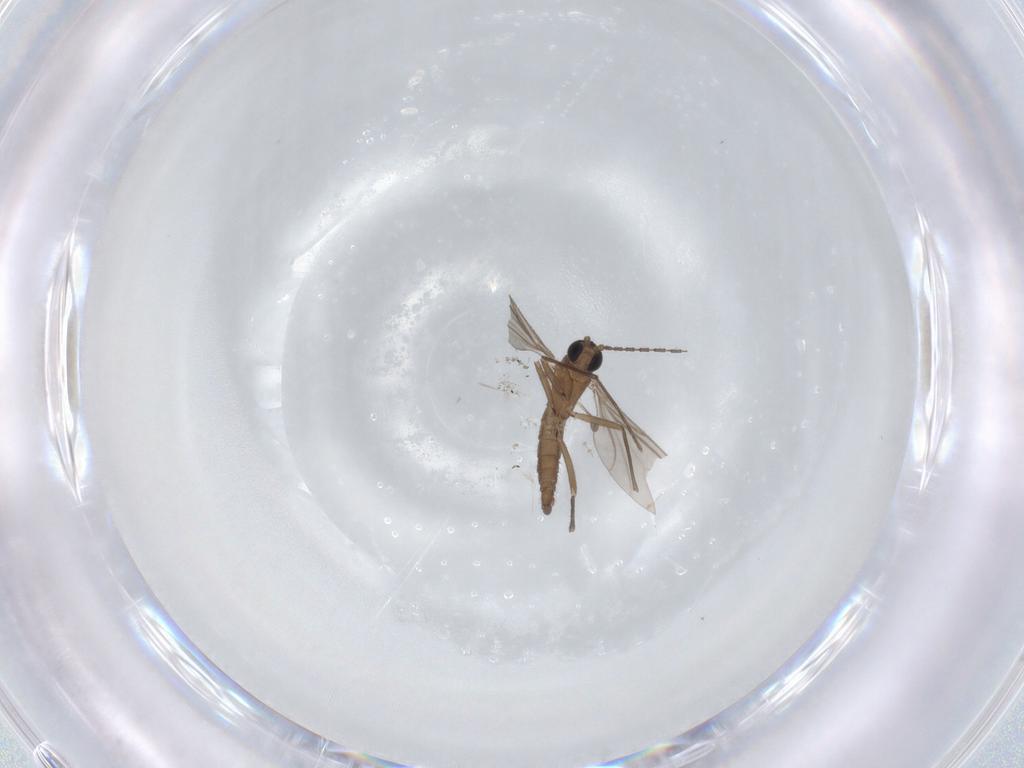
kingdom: Animalia
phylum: Arthropoda
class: Insecta
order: Diptera
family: Sciaridae
